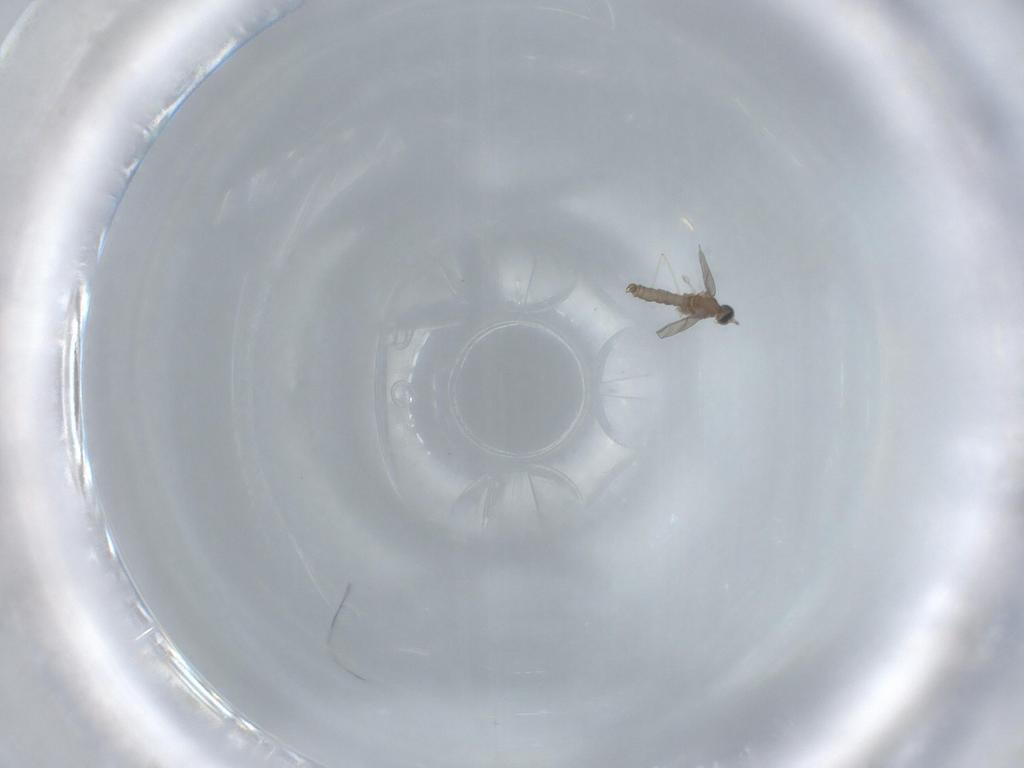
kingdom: Animalia
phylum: Arthropoda
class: Insecta
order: Diptera
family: Cecidomyiidae
